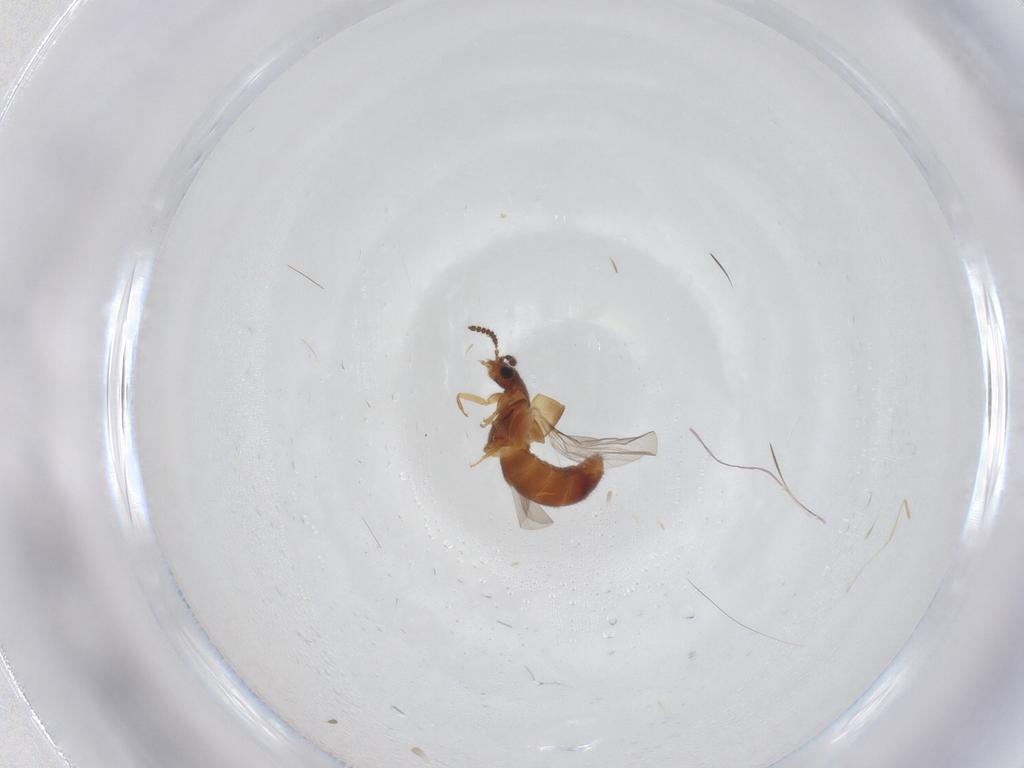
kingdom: Animalia
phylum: Arthropoda
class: Insecta
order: Coleoptera
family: Staphylinidae
